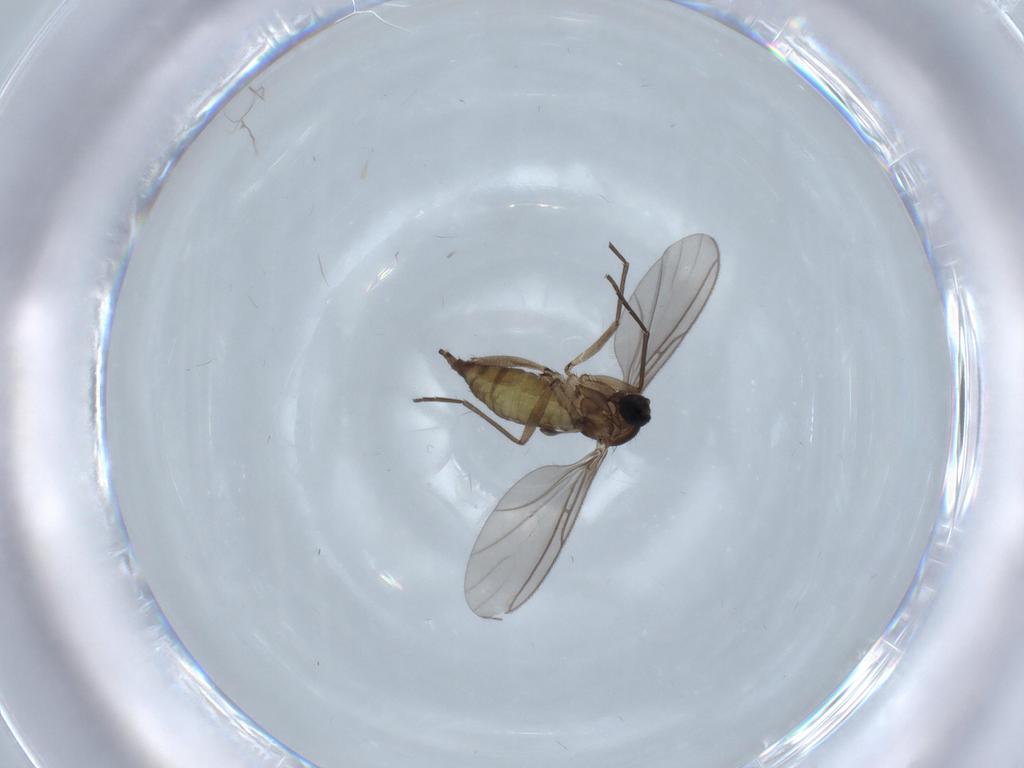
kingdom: Animalia
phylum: Arthropoda
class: Insecta
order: Diptera
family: Sciaridae
